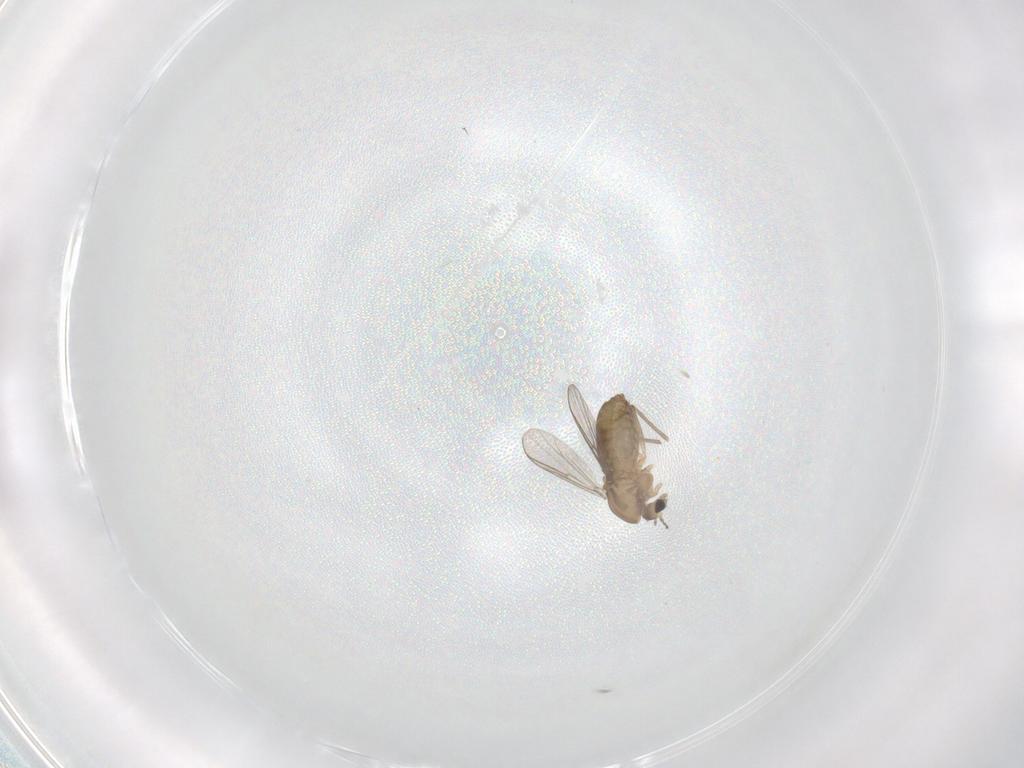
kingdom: Animalia
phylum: Arthropoda
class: Insecta
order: Diptera
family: Chironomidae
